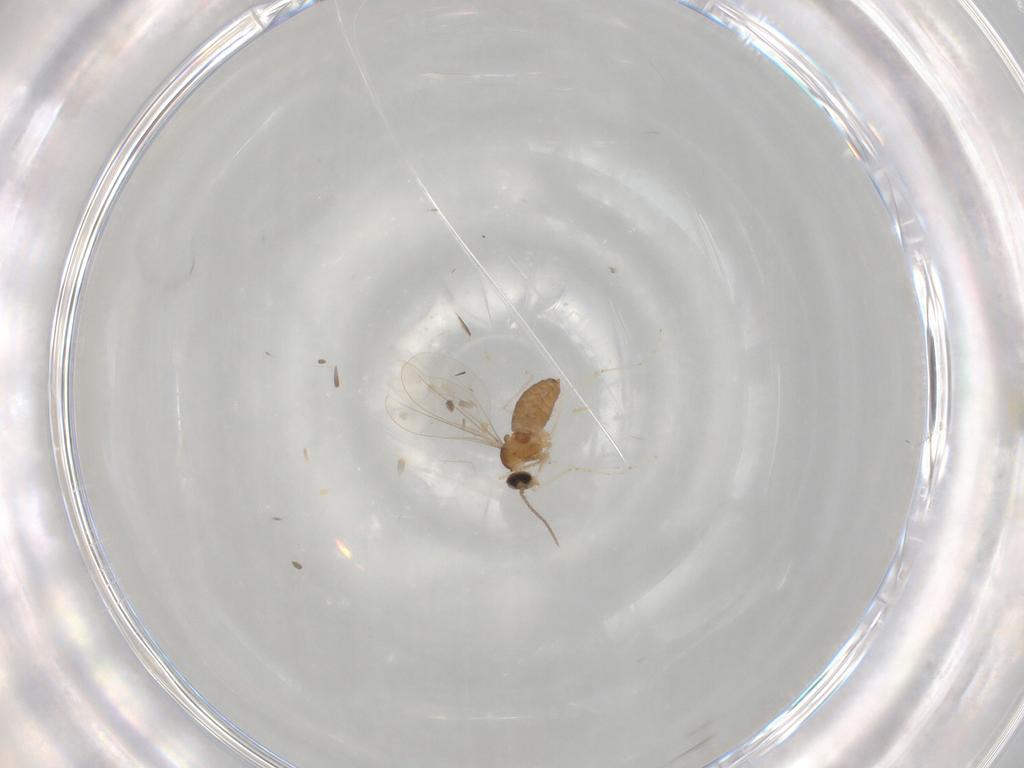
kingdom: Animalia
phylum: Arthropoda
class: Insecta
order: Diptera
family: Cecidomyiidae
